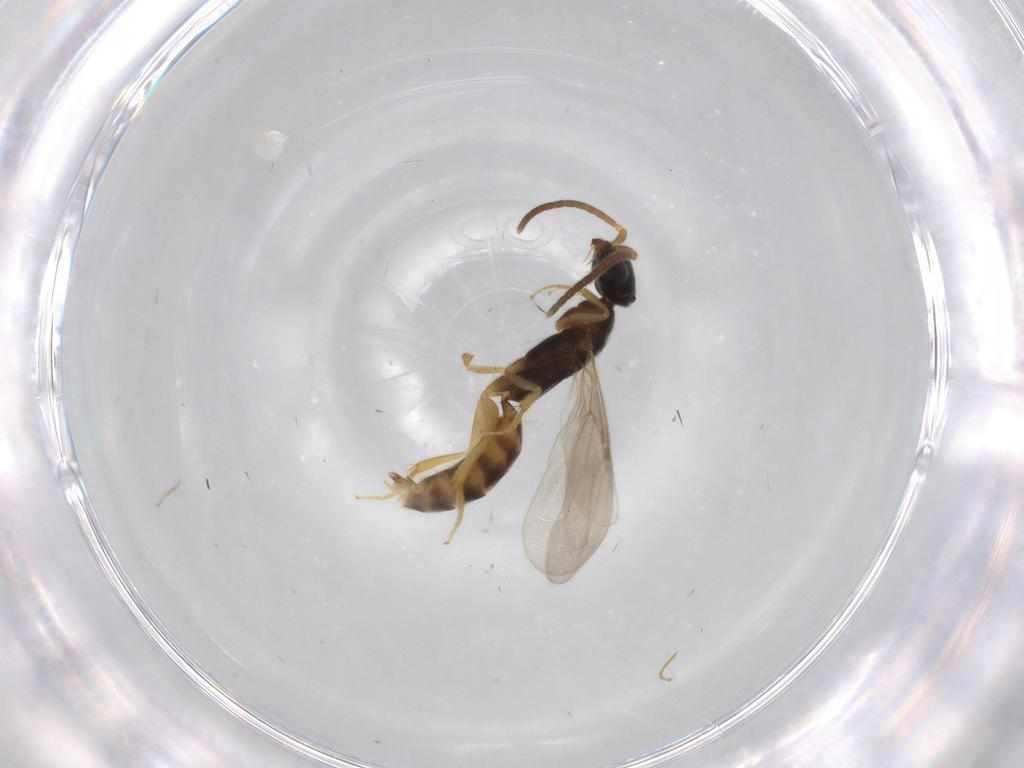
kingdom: Animalia
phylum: Arthropoda
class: Insecta
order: Hymenoptera
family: Bethylidae
